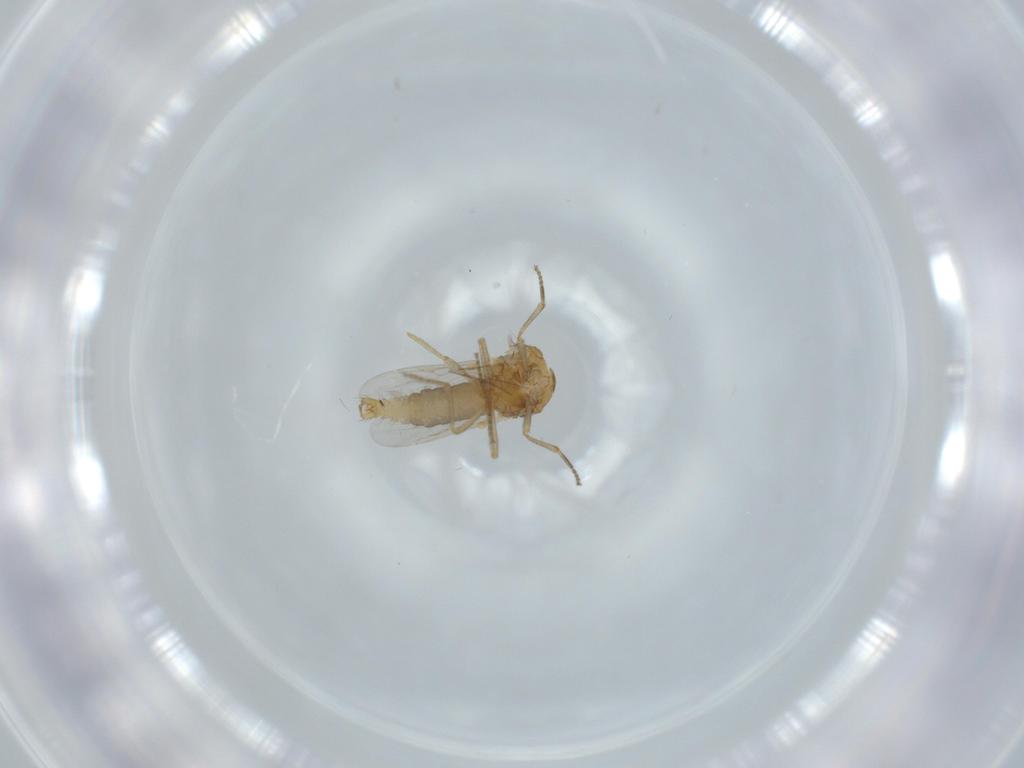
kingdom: Animalia
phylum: Arthropoda
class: Insecta
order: Diptera
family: Ceratopogonidae
